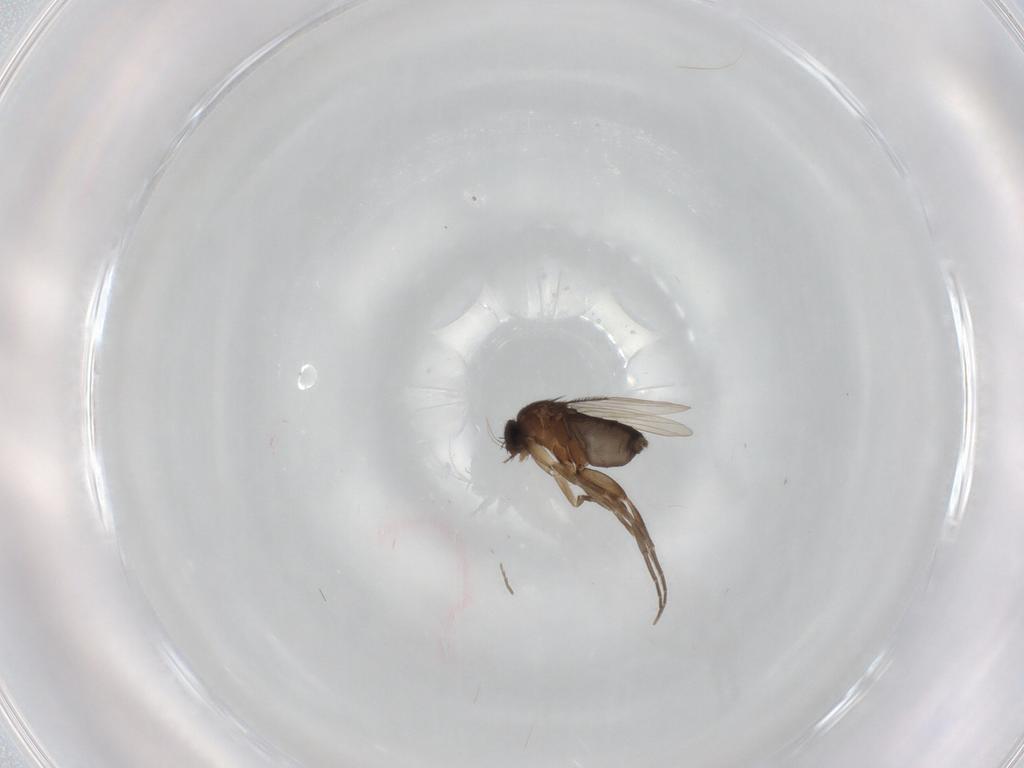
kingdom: Animalia
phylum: Arthropoda
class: Insecta
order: Diptera
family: Phoridae
